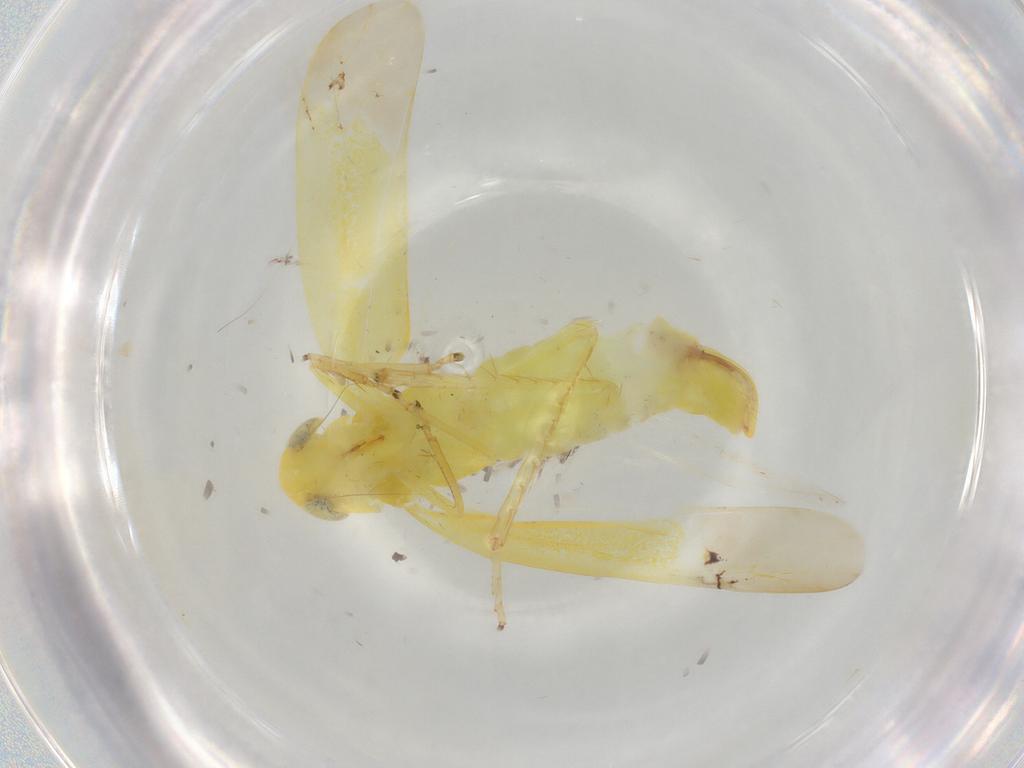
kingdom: Animalia
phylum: Arthropoda
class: Insecta
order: Hemiptera
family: Cicadellidae
